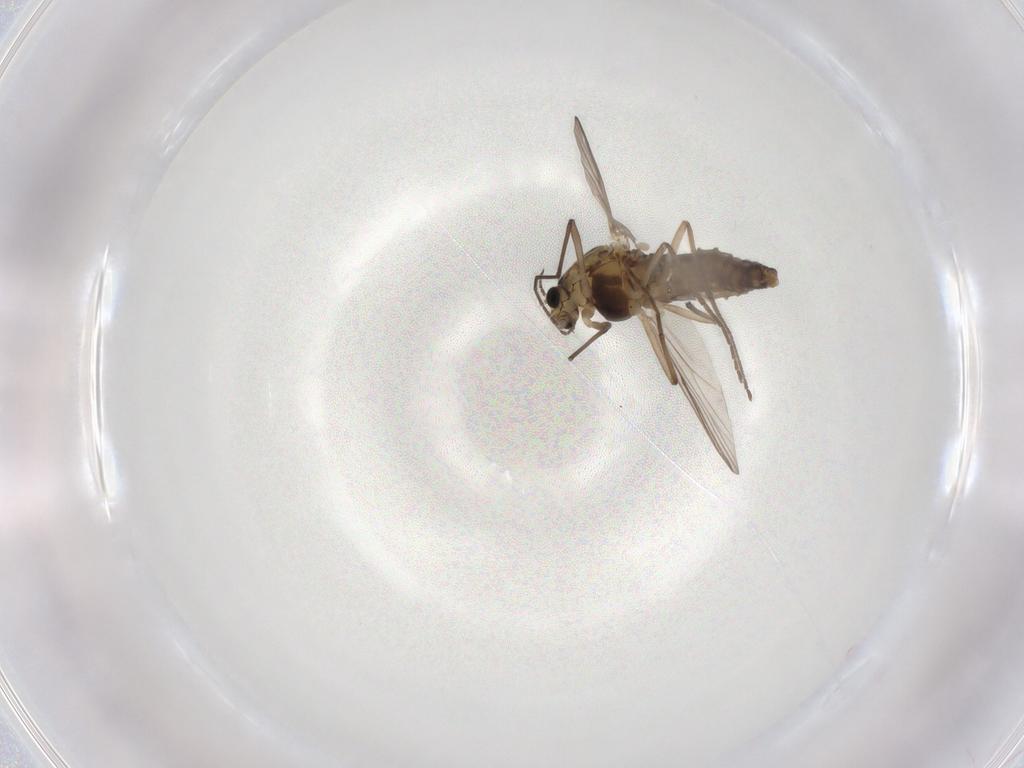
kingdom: Animalia
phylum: Arthropoda
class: Insecta
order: Diptera
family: Chironomidae
